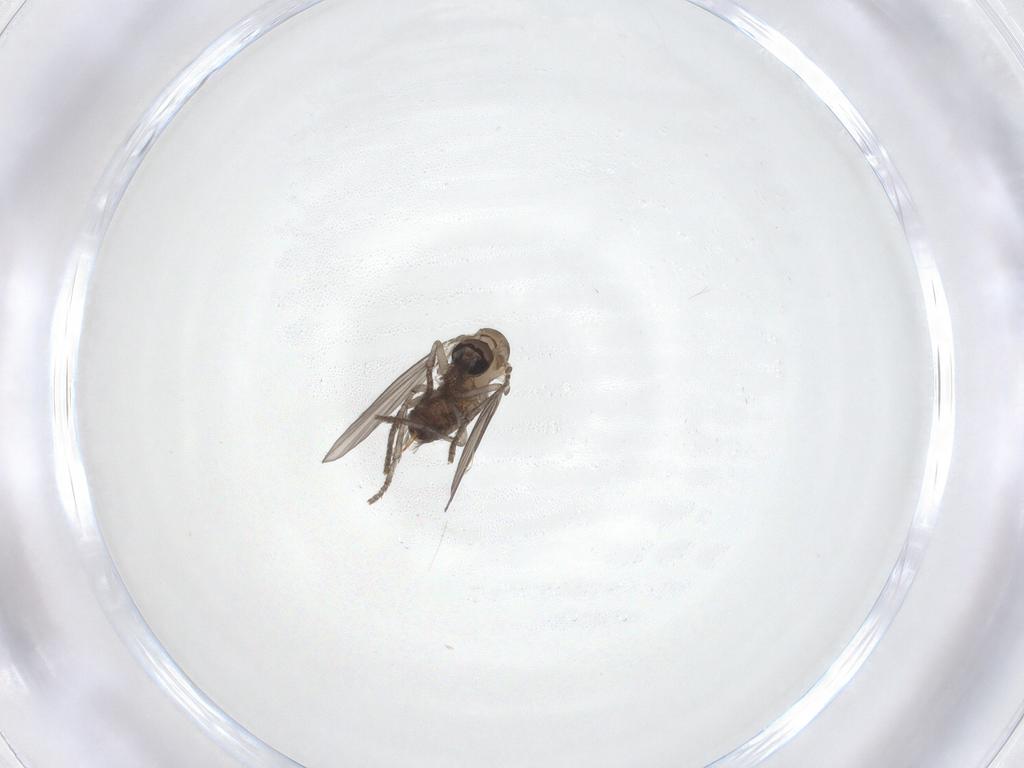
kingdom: Animalia
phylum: Arthropoda
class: Insecta
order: Diptera
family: Psychodidae
